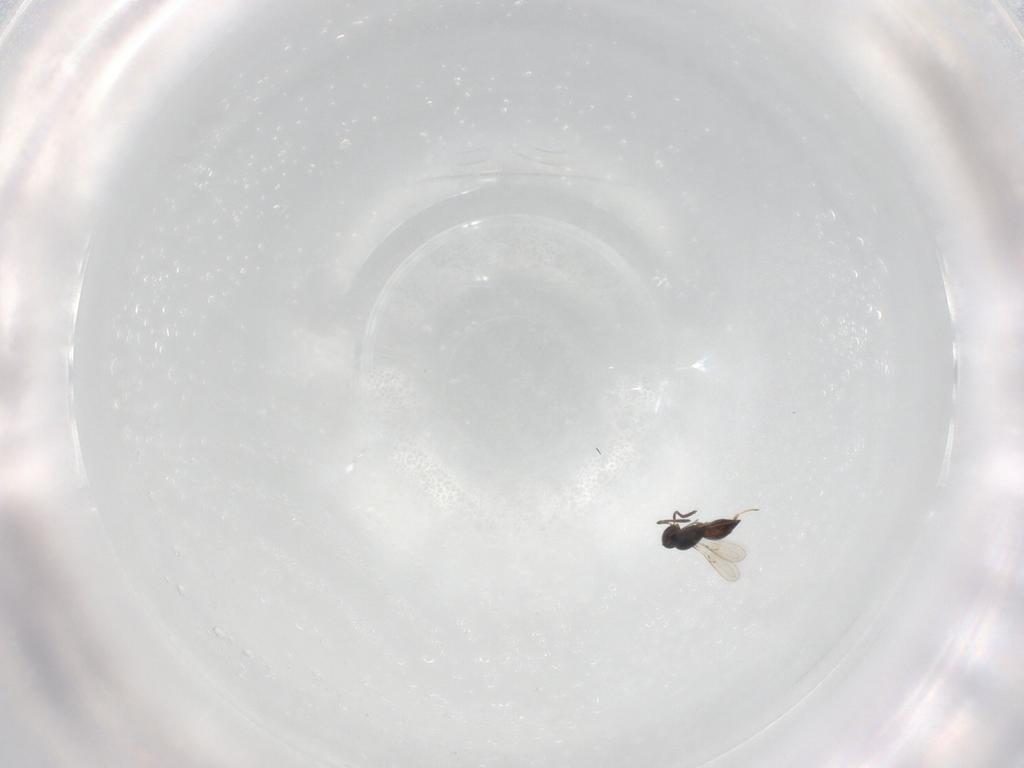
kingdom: Animalia
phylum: Arthropoda
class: Insecta
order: Hymenoptera
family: Scelionidae
